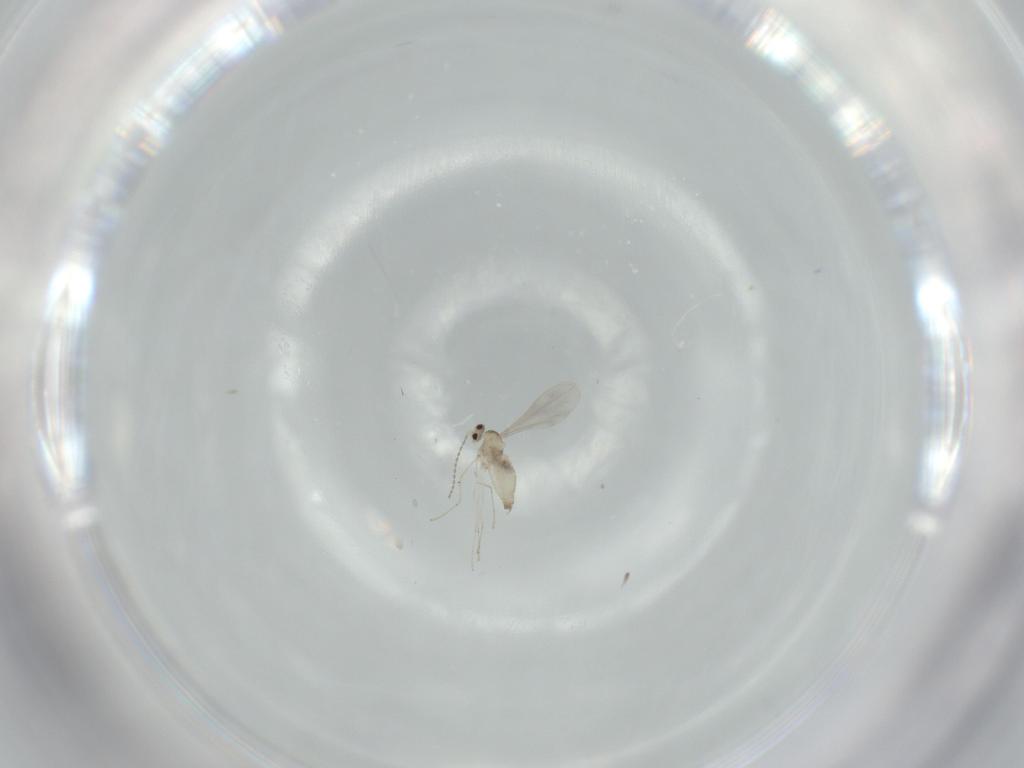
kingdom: Animalia
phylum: Arthropoda
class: Insecta
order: Diptera
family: Cecidomyiidae
